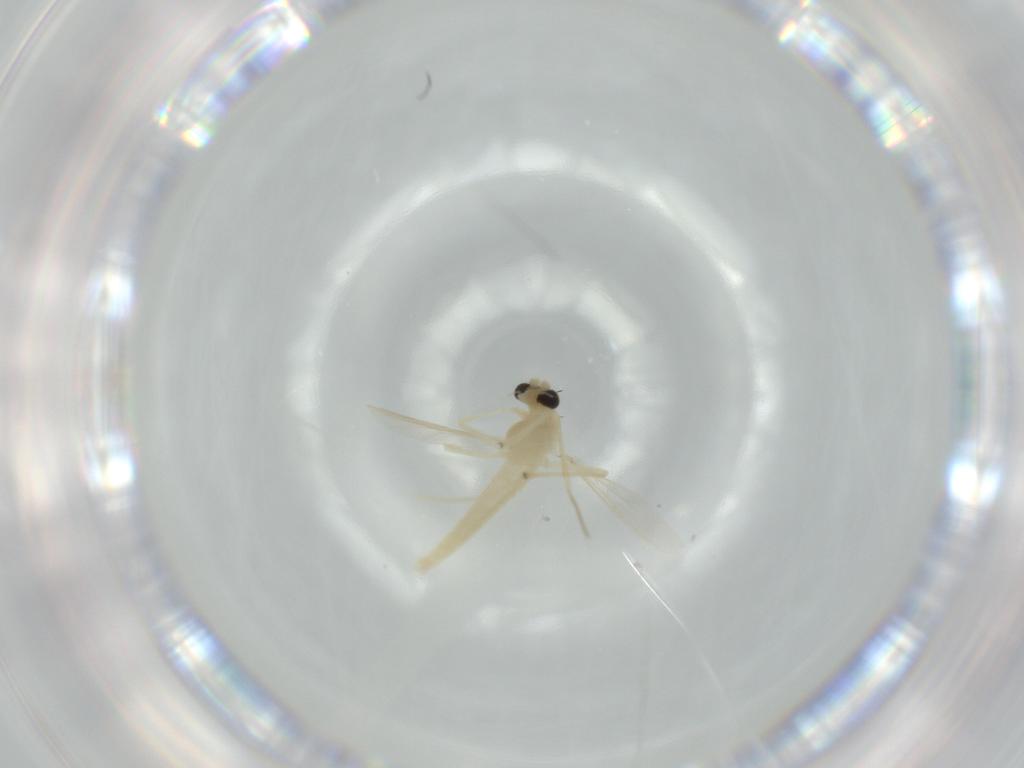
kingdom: Animalia
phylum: Arthropoda
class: Insecta
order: Diptera
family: Chironomidae
